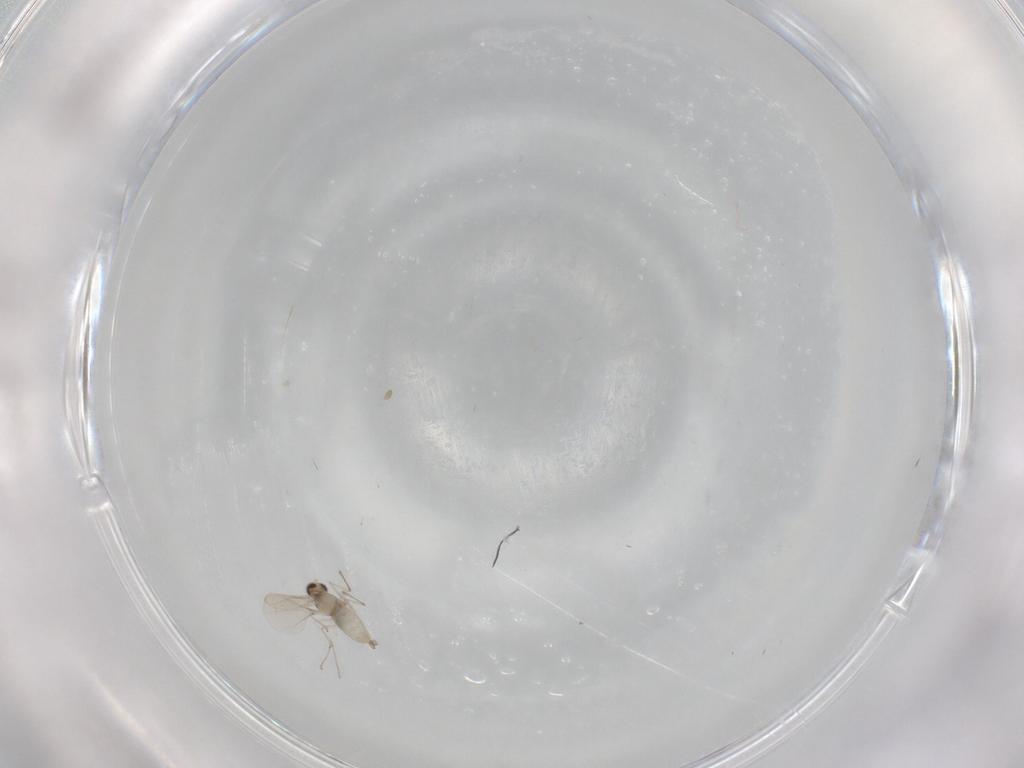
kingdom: Animalia
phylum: Arthropoda
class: Insecta
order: Diptera
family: Cecidomyiidae
